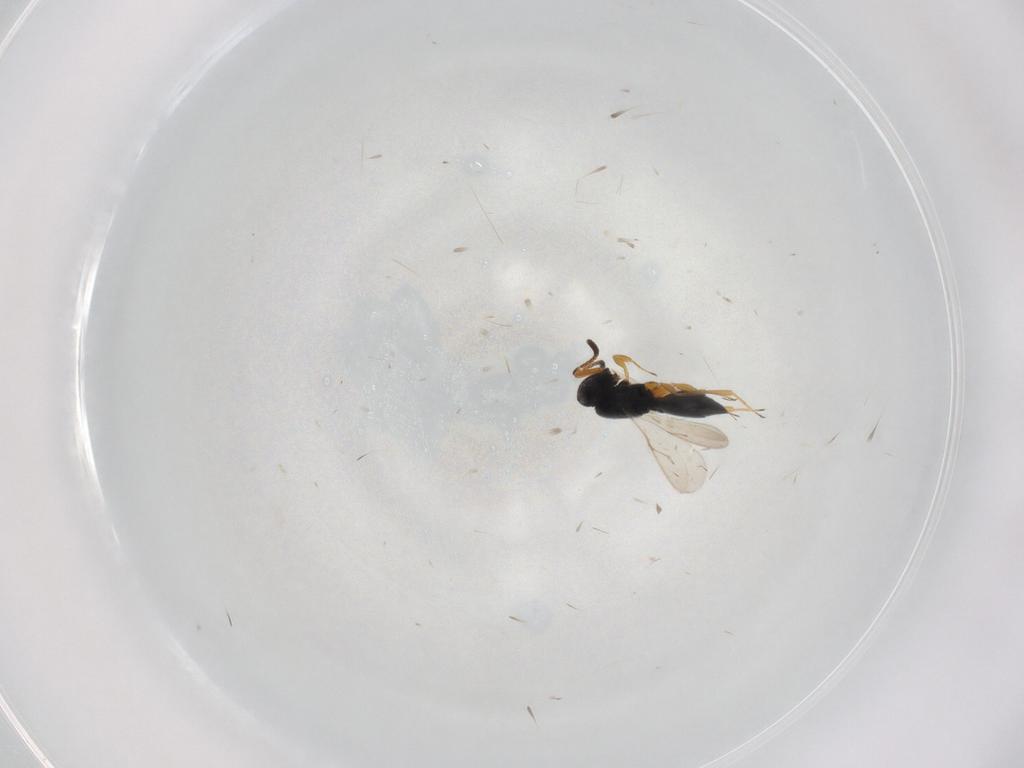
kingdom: Animalia
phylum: Arthropoda
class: Insecta
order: Hymenoptera
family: Scelionidae
